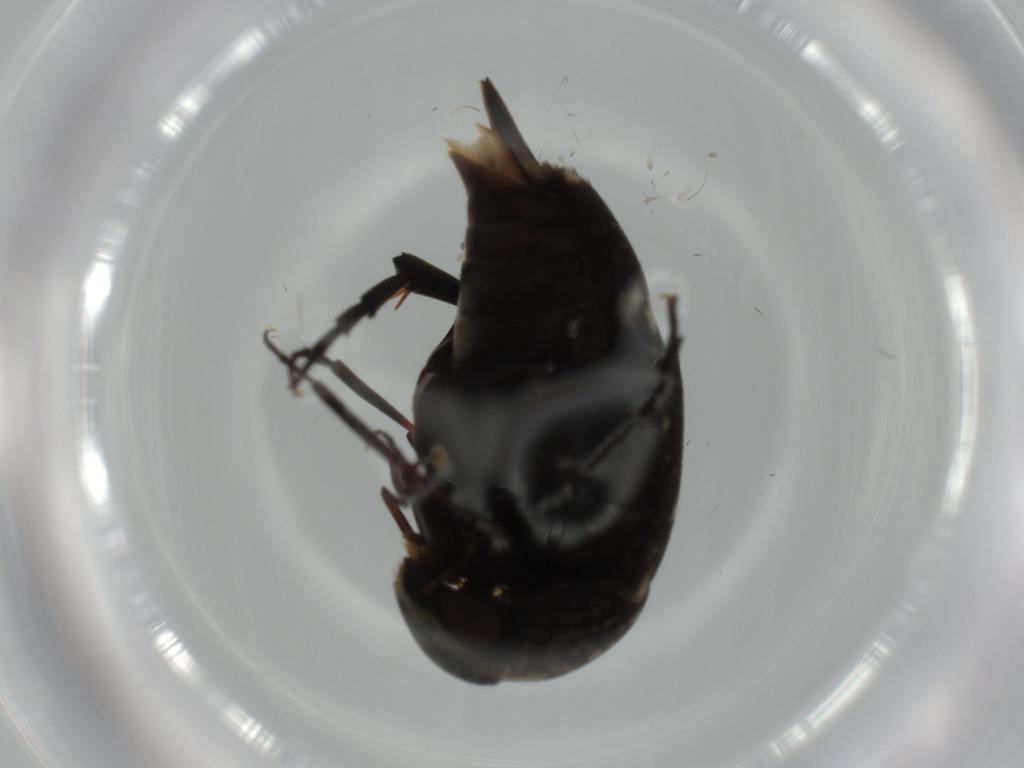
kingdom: Animalia
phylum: Arthropoda
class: Insecta
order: Lepidoptera
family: Tineidae
